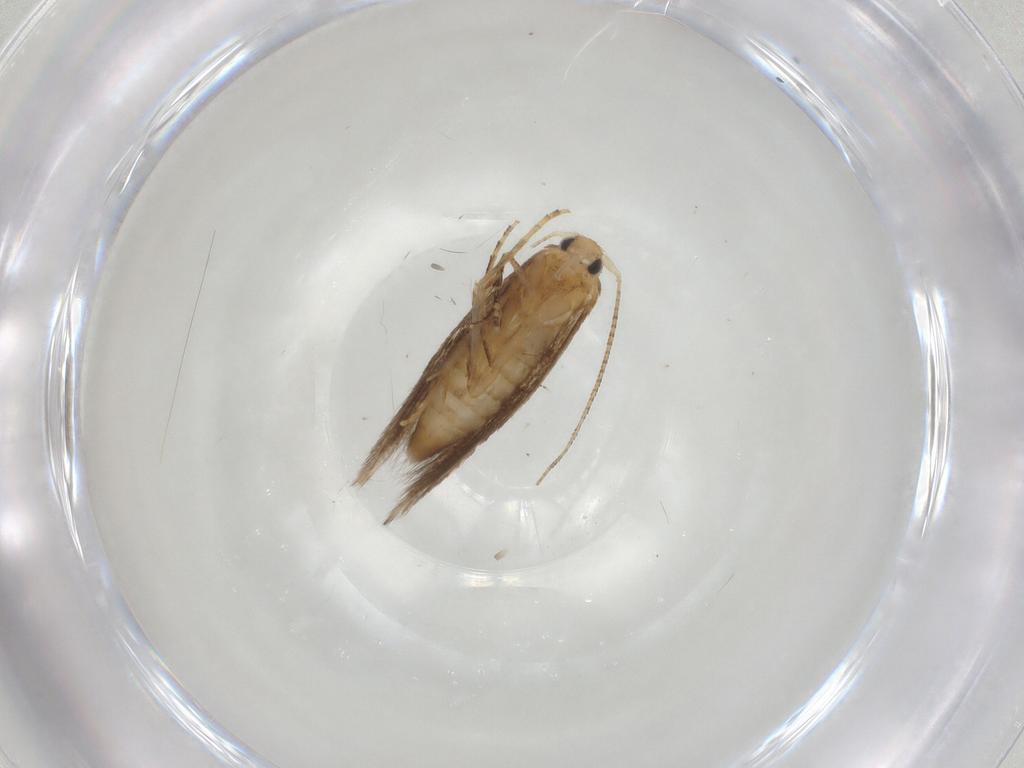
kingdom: Animalia
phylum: Arthropoda
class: Insecta
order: Lepidoptera
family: Bucculatricidae
